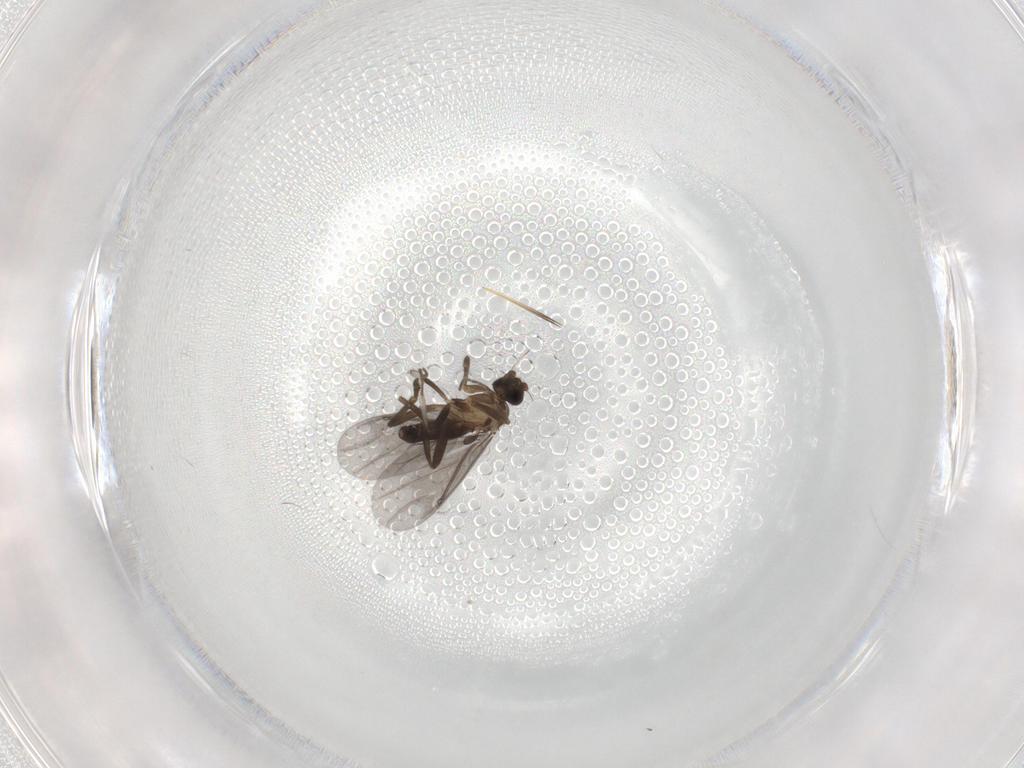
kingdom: Animalia
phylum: Arthropoda
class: Insecta
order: Diptera
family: Phoridae
